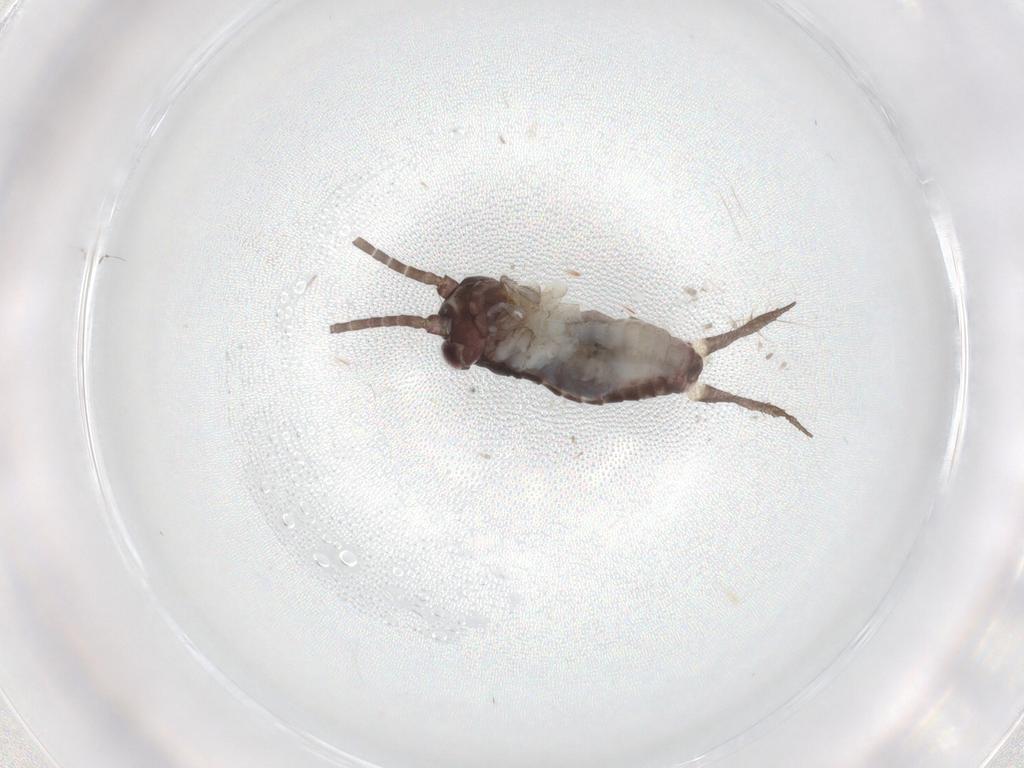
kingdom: Animalia
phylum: Arthropoda
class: Insecta
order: Orthoptera
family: Gryllidae
